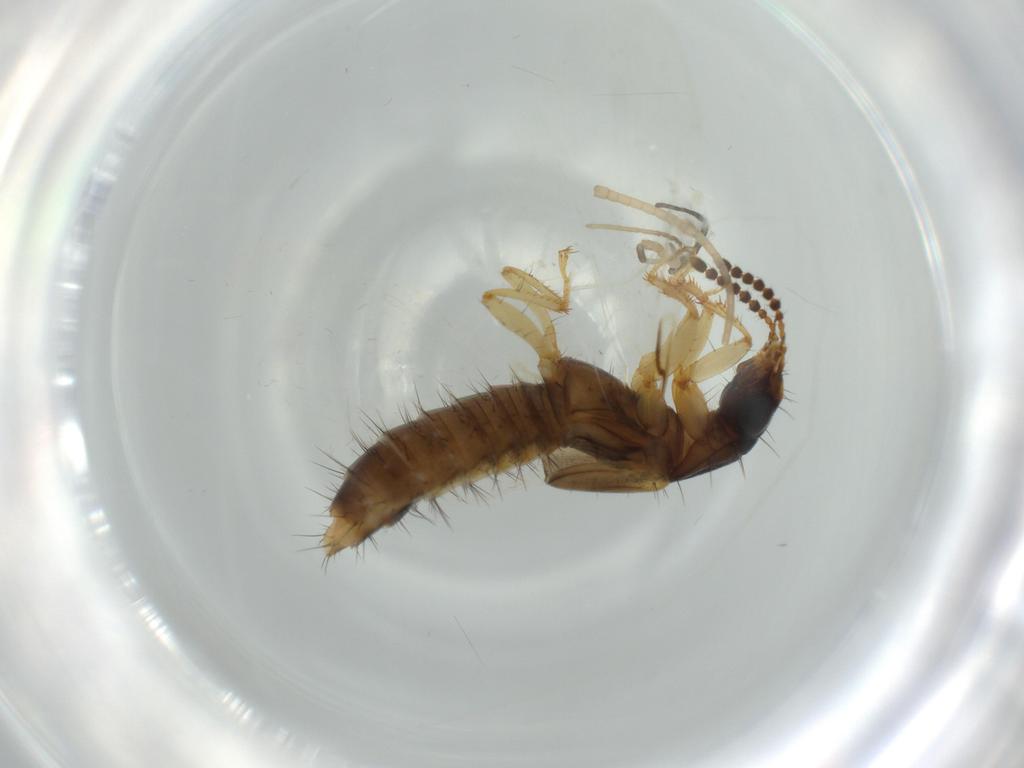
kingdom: Animalia
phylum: Arthropoda
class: Insecta
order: Trichoptera
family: Ecnomidae
